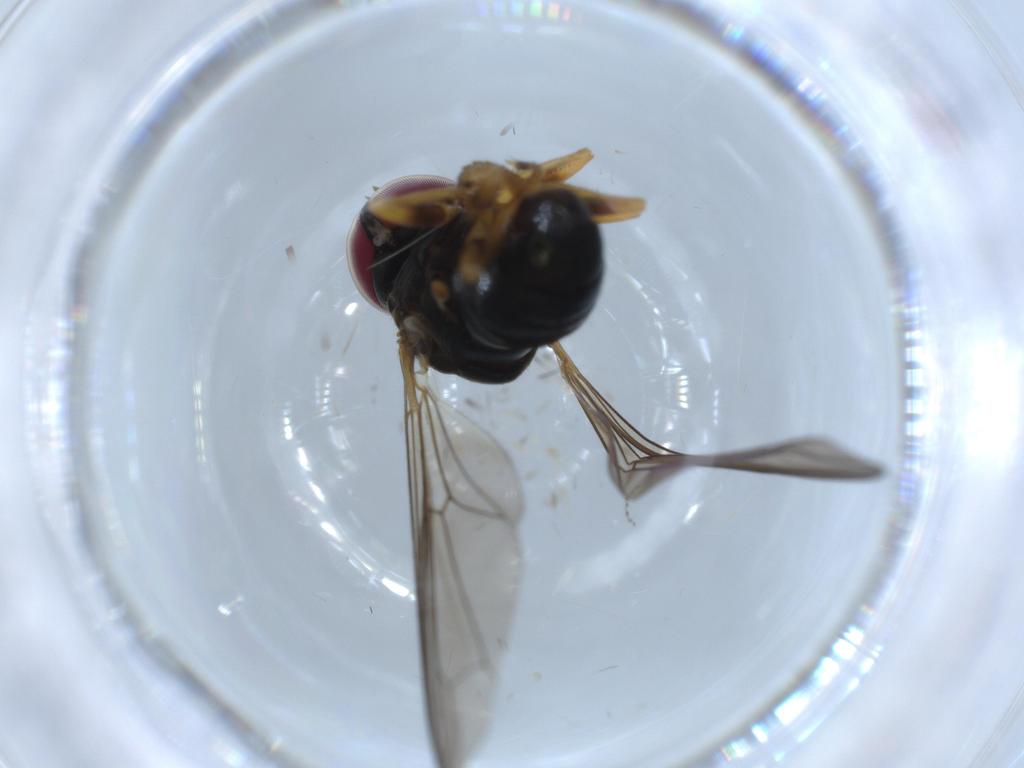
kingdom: Animalia
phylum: Arthropoda
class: Insecta
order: Diptera
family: Pipunculidae
